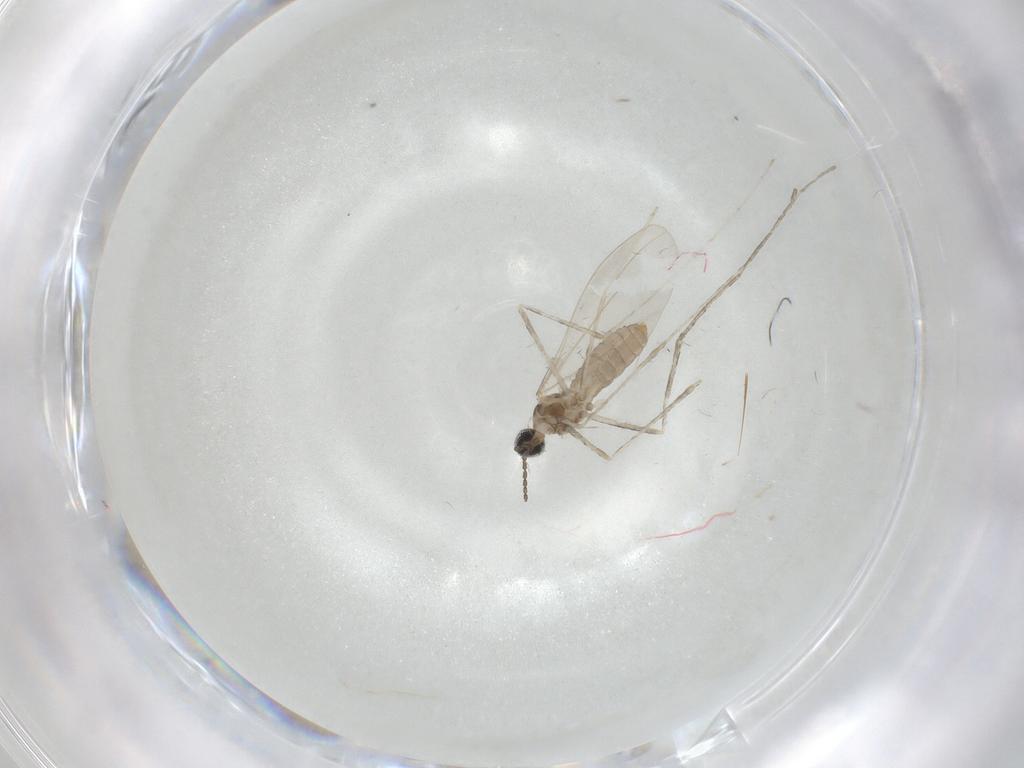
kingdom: Animalia
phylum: Arthropoda
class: Insecta
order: Diptera
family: Cecidomyiidae
